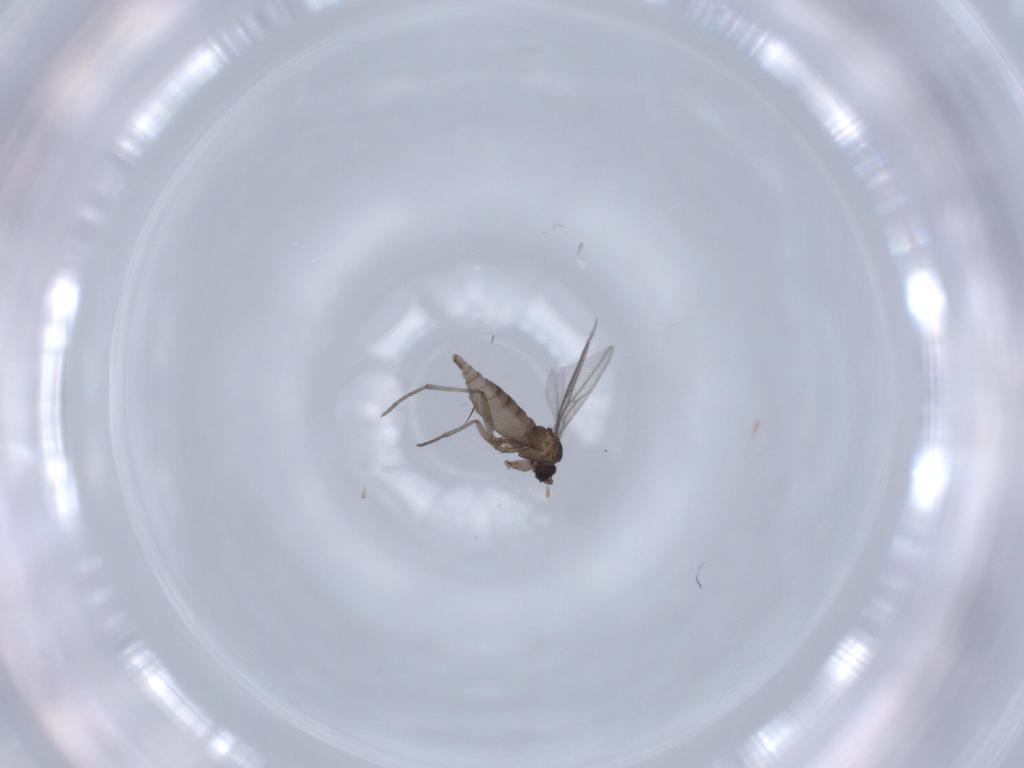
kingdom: Animalia
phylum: Arthropoda
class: Insecta
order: Diptera
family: Sciaridae
